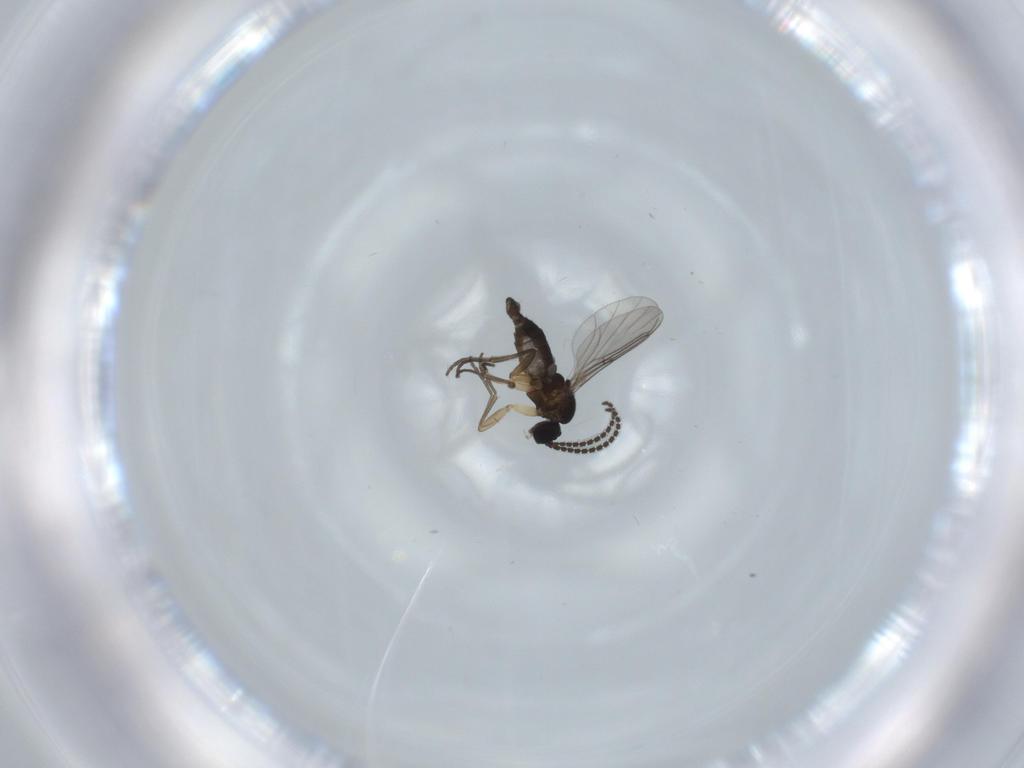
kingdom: Animalia
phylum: Arthropoda
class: Insecta
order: Diptera
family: Sciaridae
